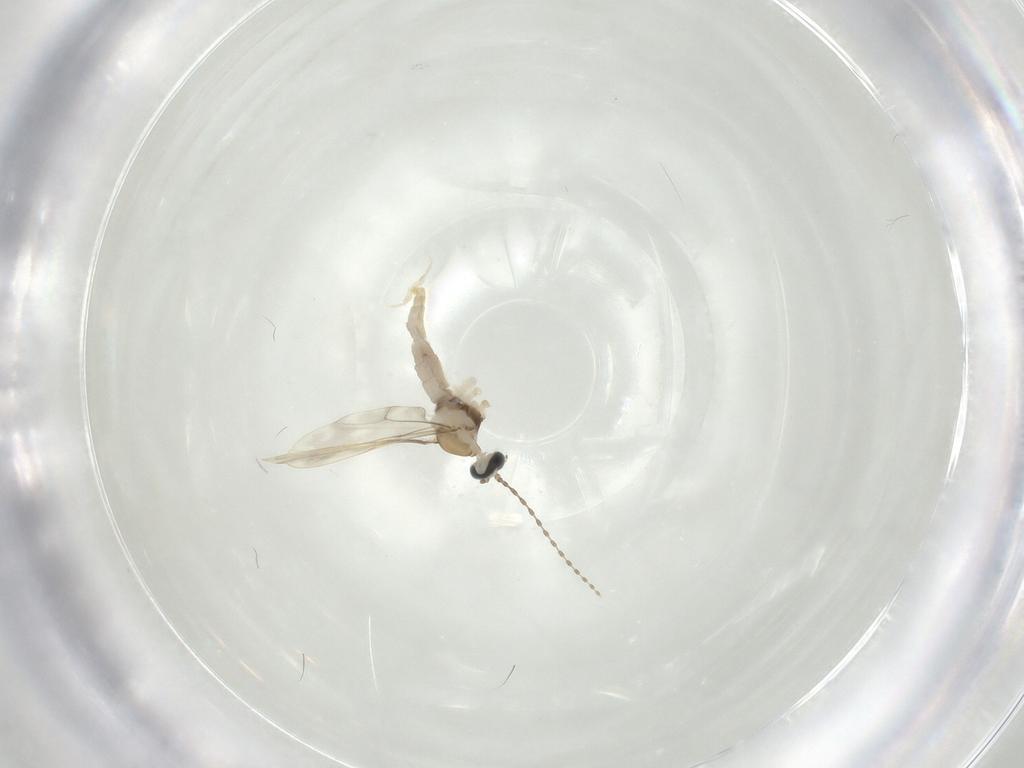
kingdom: Animalia
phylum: Arthropoda
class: Insecta
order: Diptera
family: Cecidomyiidae
